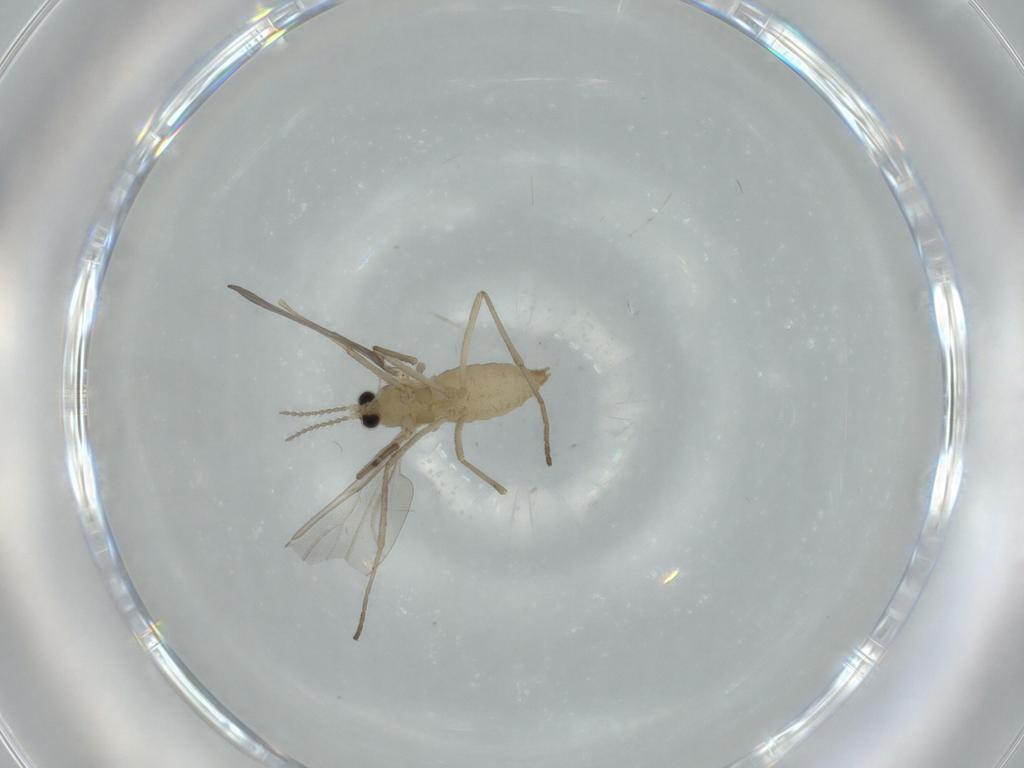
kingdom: Animalia
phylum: Arthropoda
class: Insecta
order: Diptera
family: Cecidomyiidae
